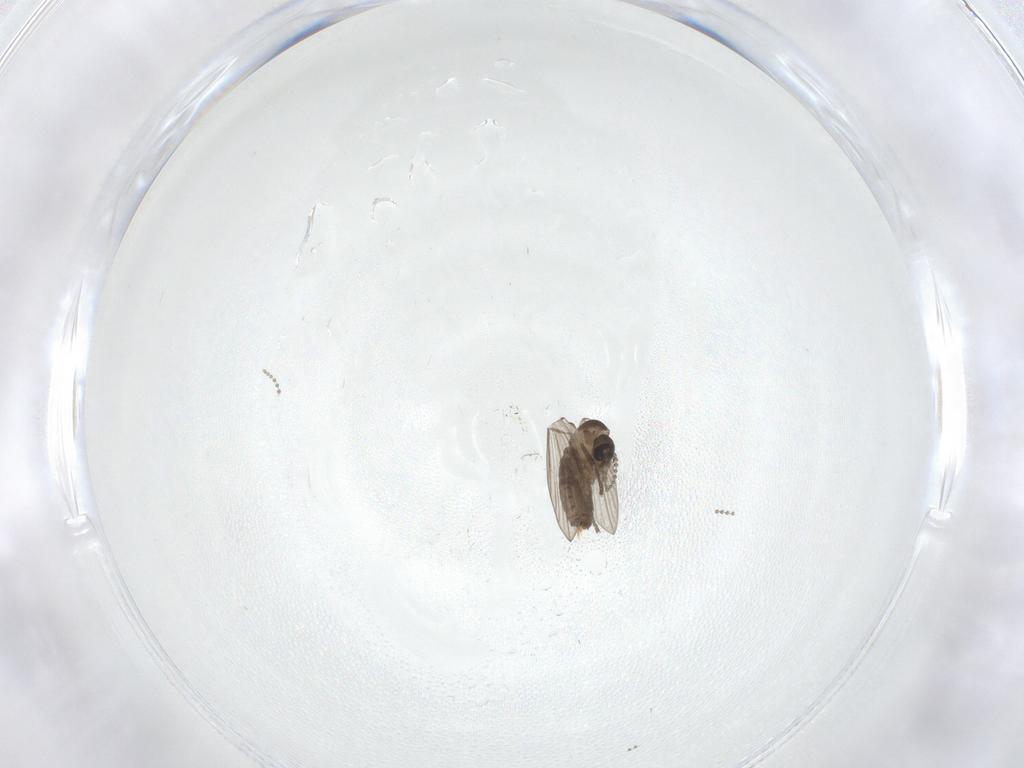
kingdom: Animalia
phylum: Arthropoda
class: Insecta
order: Diptera
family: Psychodidae
